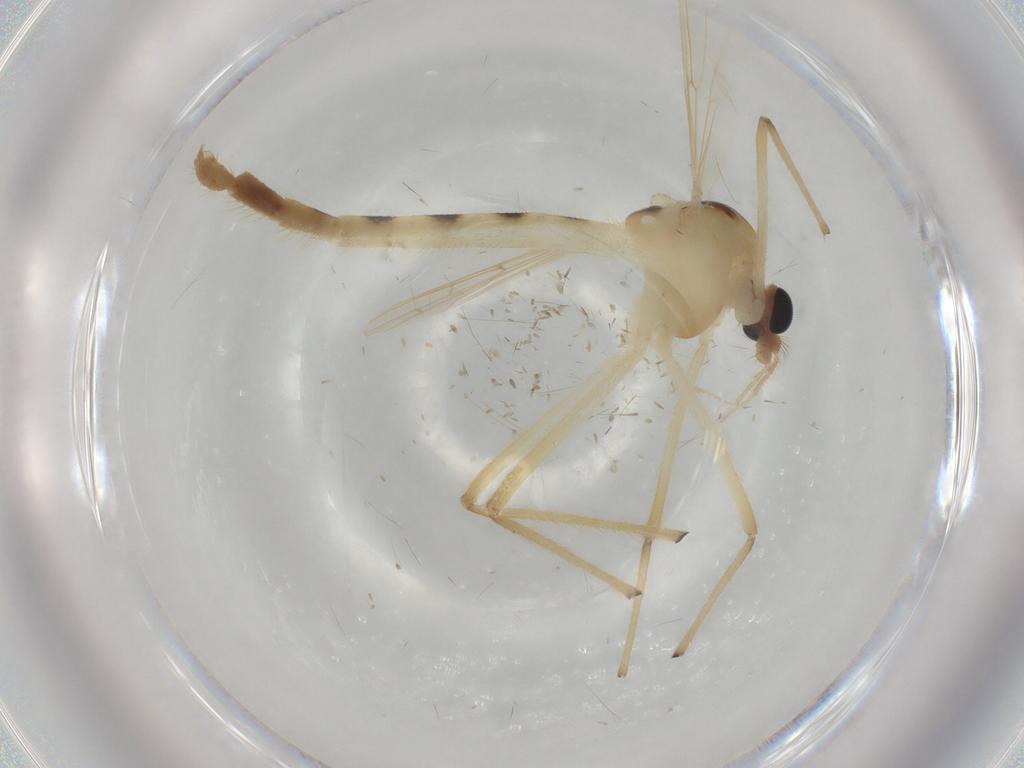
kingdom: Animalia
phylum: Arthropoda
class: Insecta
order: Diptera
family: Chironomidae
